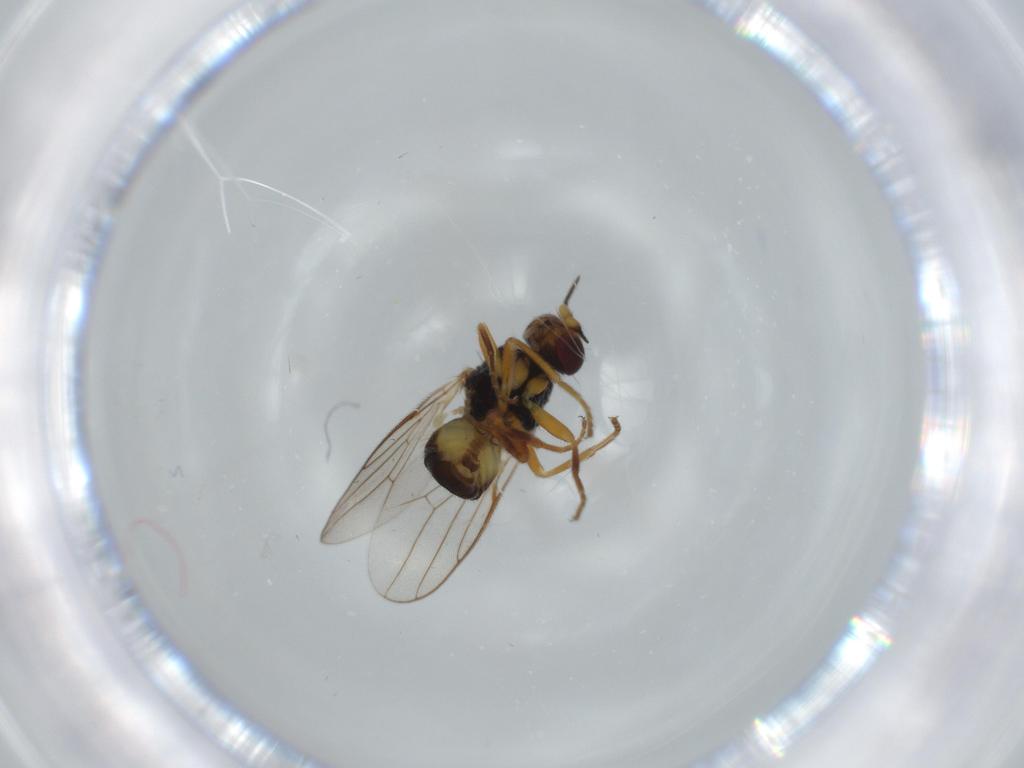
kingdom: Animalia
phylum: Arthropoda
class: Insecta
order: Diptera
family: Chloropidae
